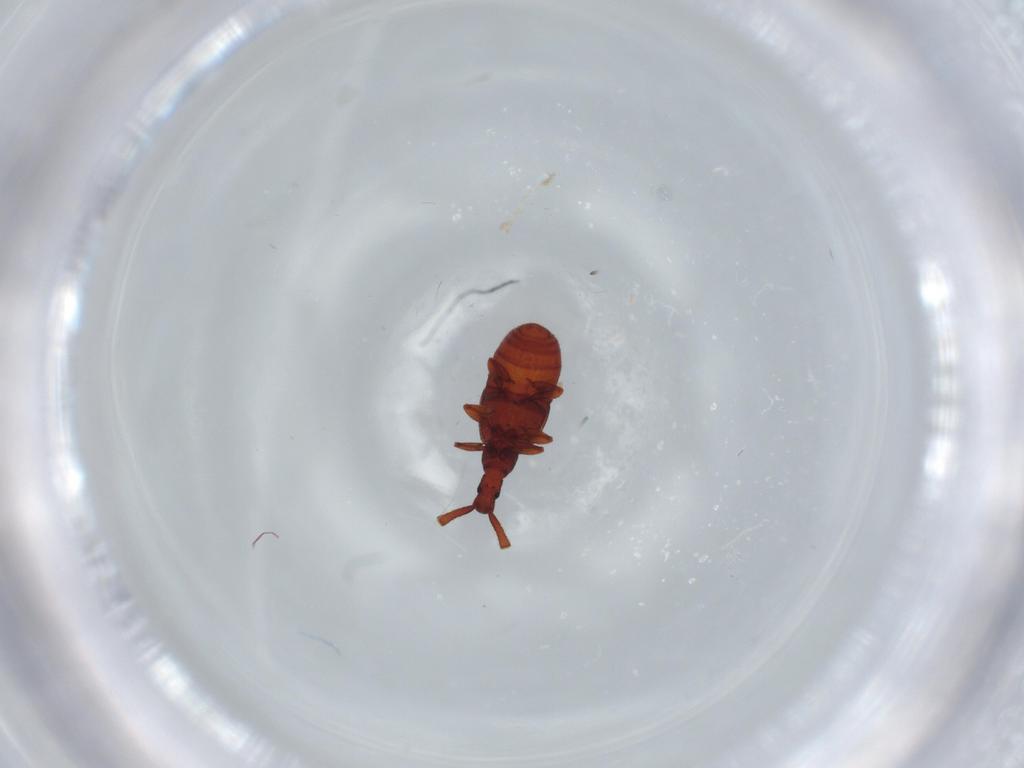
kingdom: Animalia
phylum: Arthropoda
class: Insecta
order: Coleoptera
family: Staphylinidae
